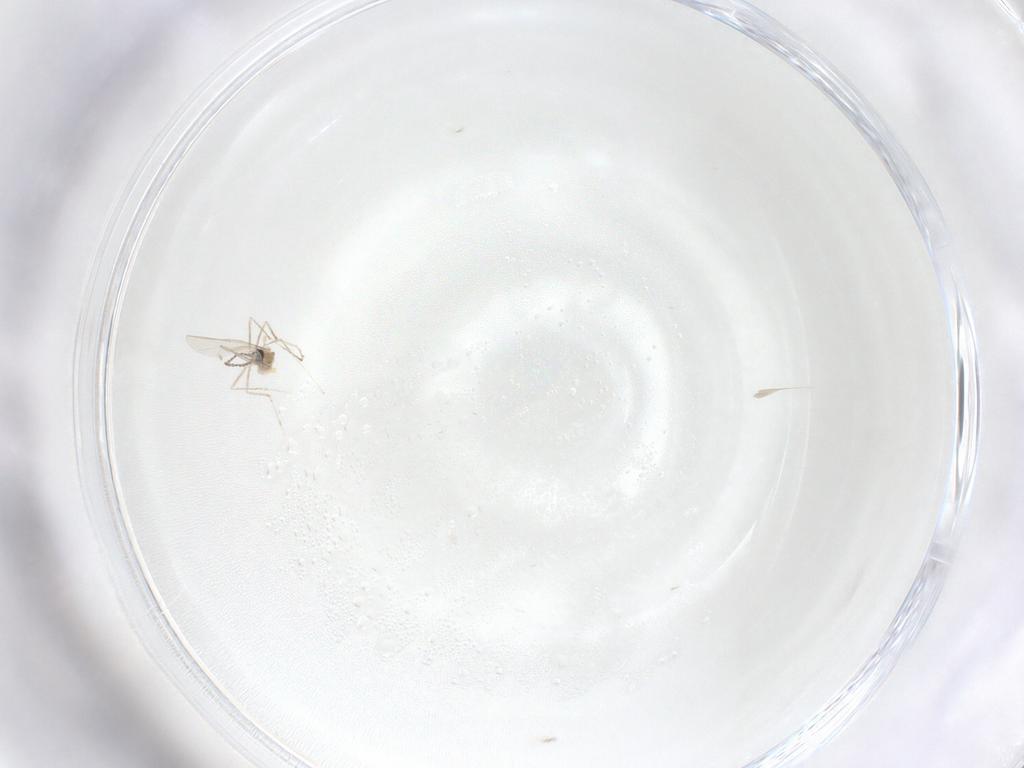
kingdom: Animalia
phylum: Arthropoda
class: Insecta
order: Diptera
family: Cecidomyiidae
